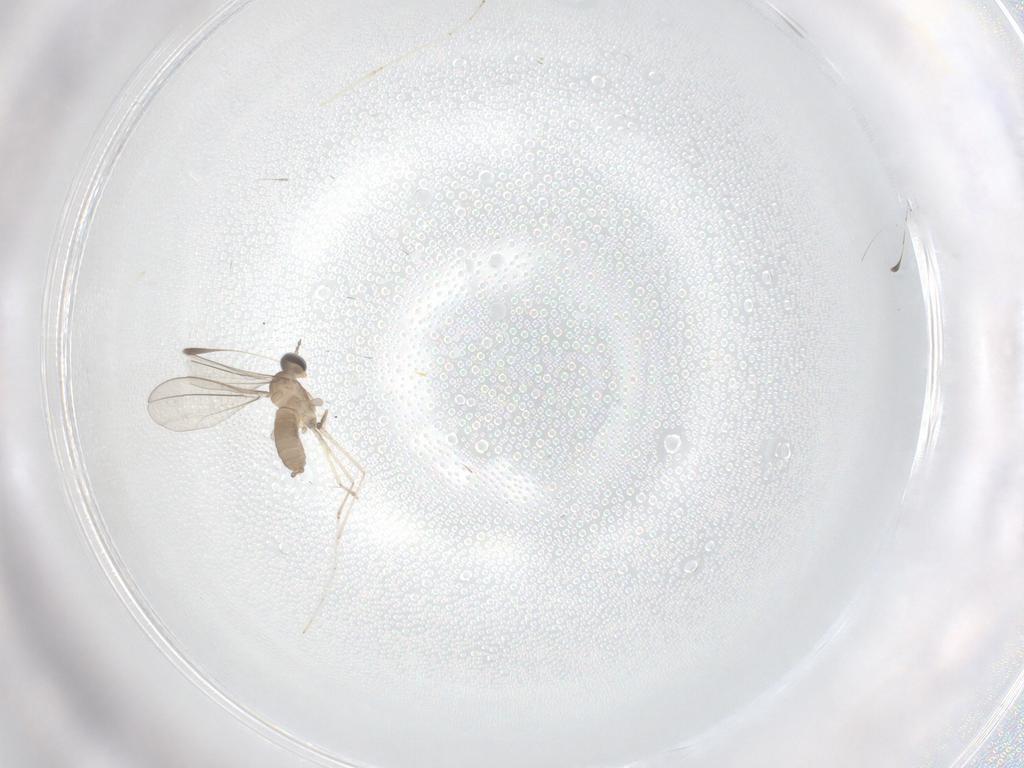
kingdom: Animalia
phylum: Arthropoda
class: Insecta
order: Diptera
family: Cecidomyiidae
